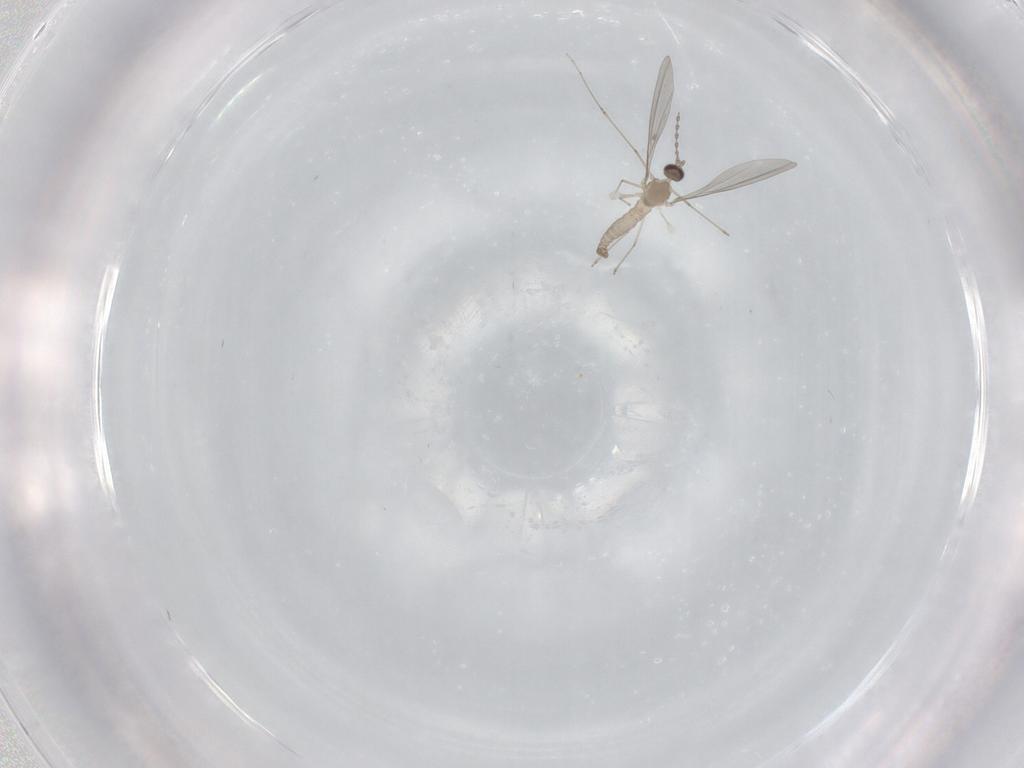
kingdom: Animalia
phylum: Arthropoda
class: Insecta
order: Diptera
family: Cecidomyiidae
